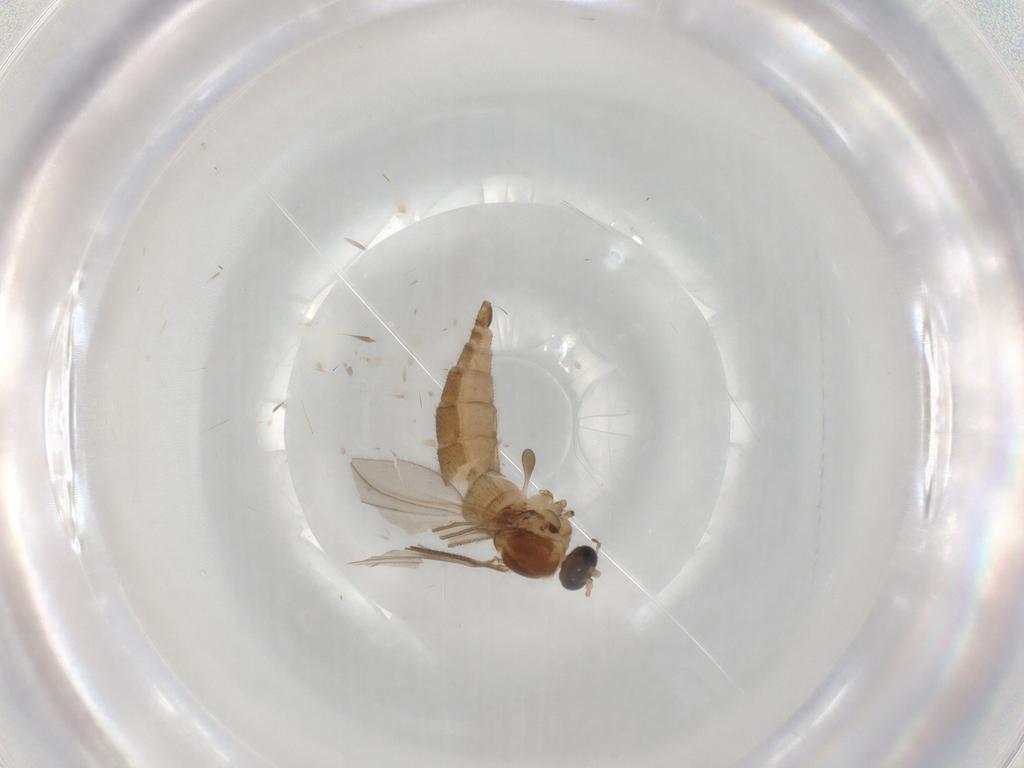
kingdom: Animalia
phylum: Arthropoda
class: Insecta
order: Diptera
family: Sciaridae
